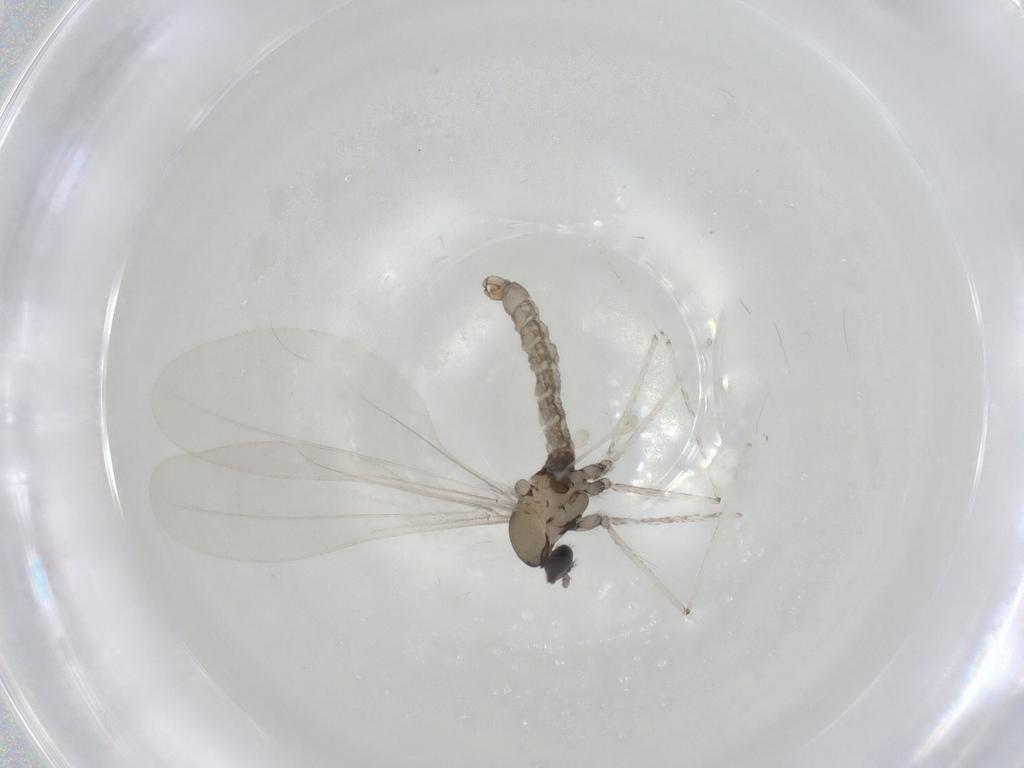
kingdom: Animalia
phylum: Arthropoda
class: Insecta
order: Diptera
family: Cecidomyiidae
